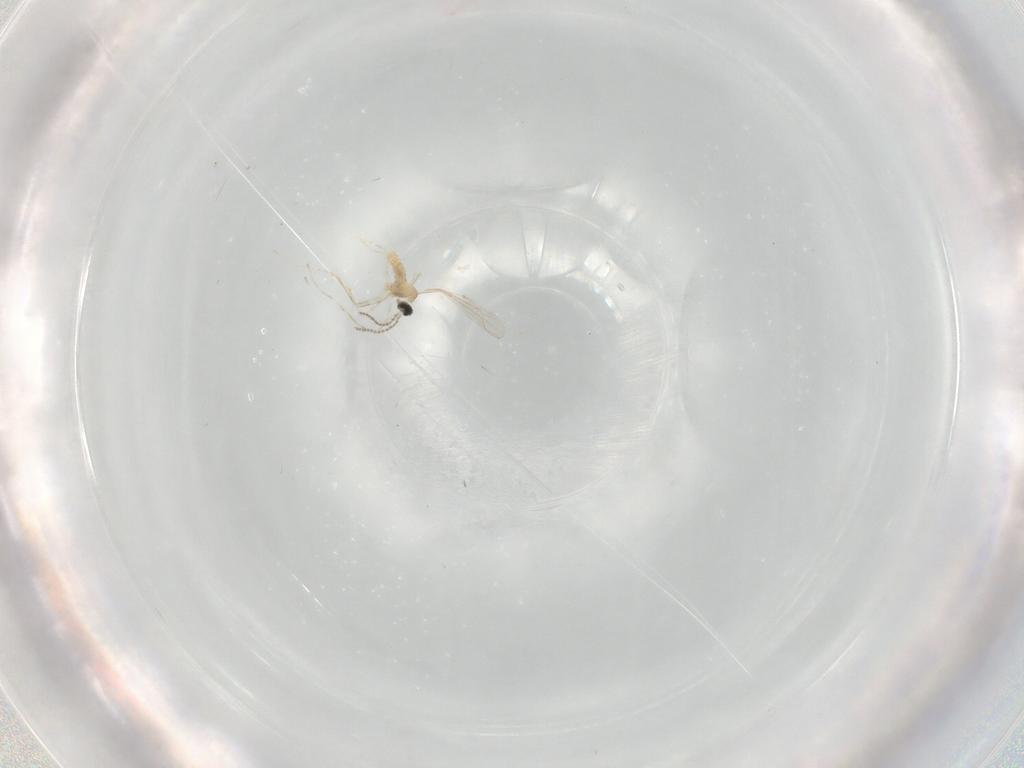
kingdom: Animalia
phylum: Arthropoda
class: Insecta
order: Diptera
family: Cecidomyiidae
